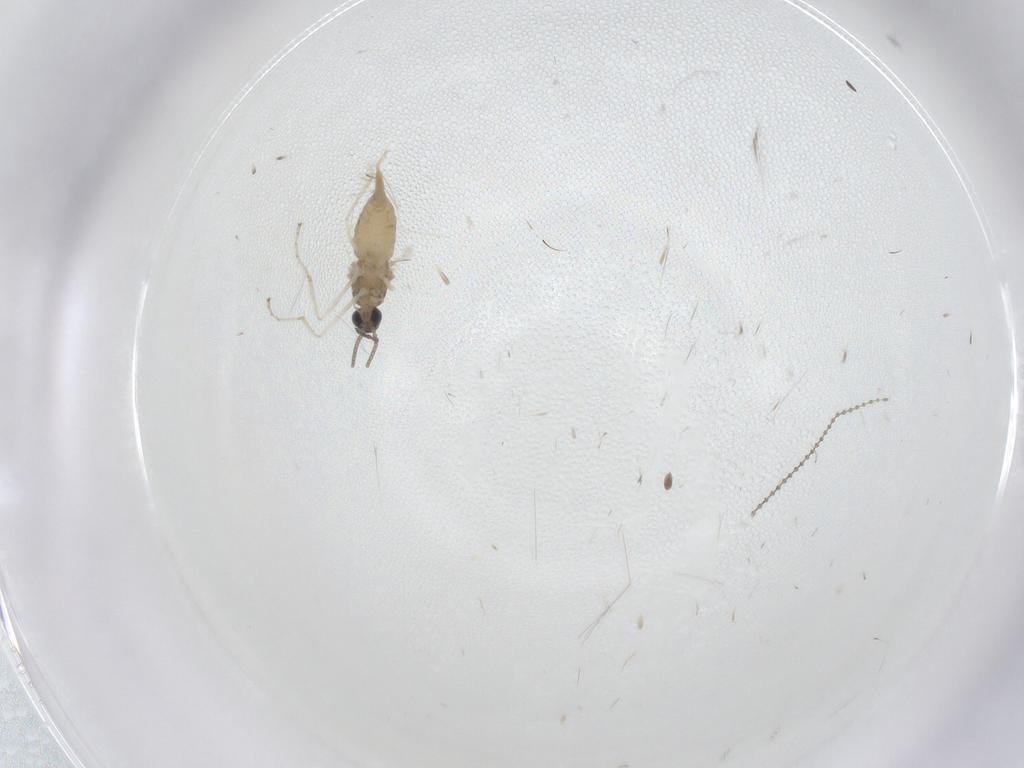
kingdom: Animalia
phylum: Arthropoda
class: Insecta
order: Diptera
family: Cecidomyiidae
